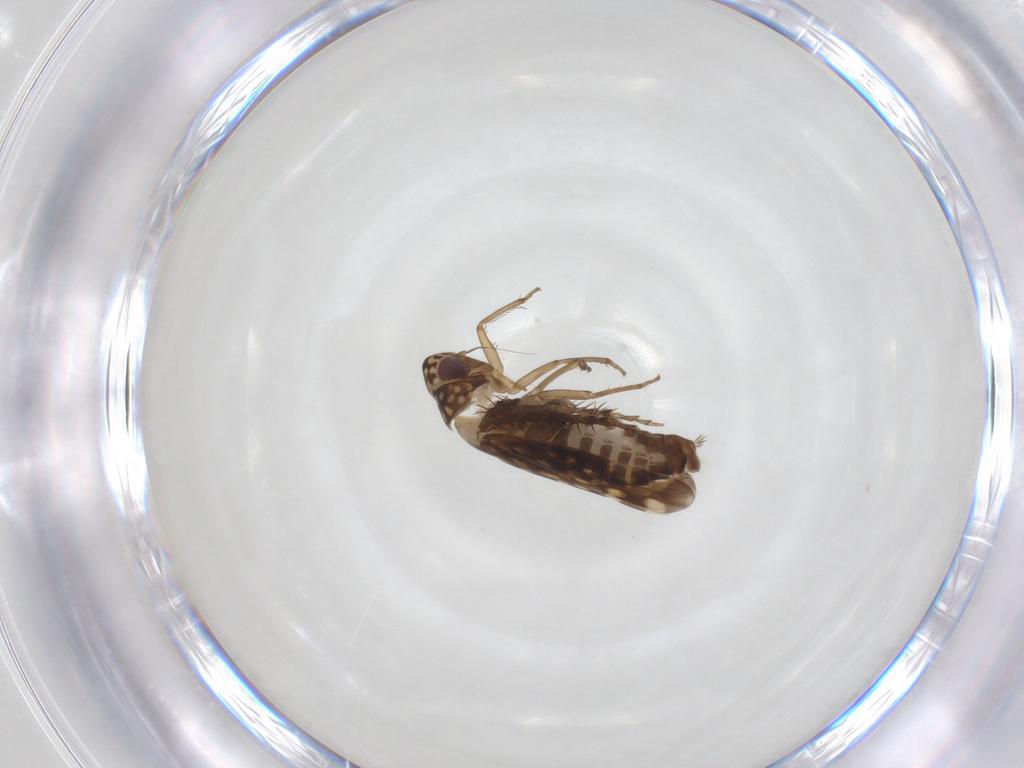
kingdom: Animalia
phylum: Arthropoda
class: Insecta
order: Hemiptera
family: Cicadellidae
